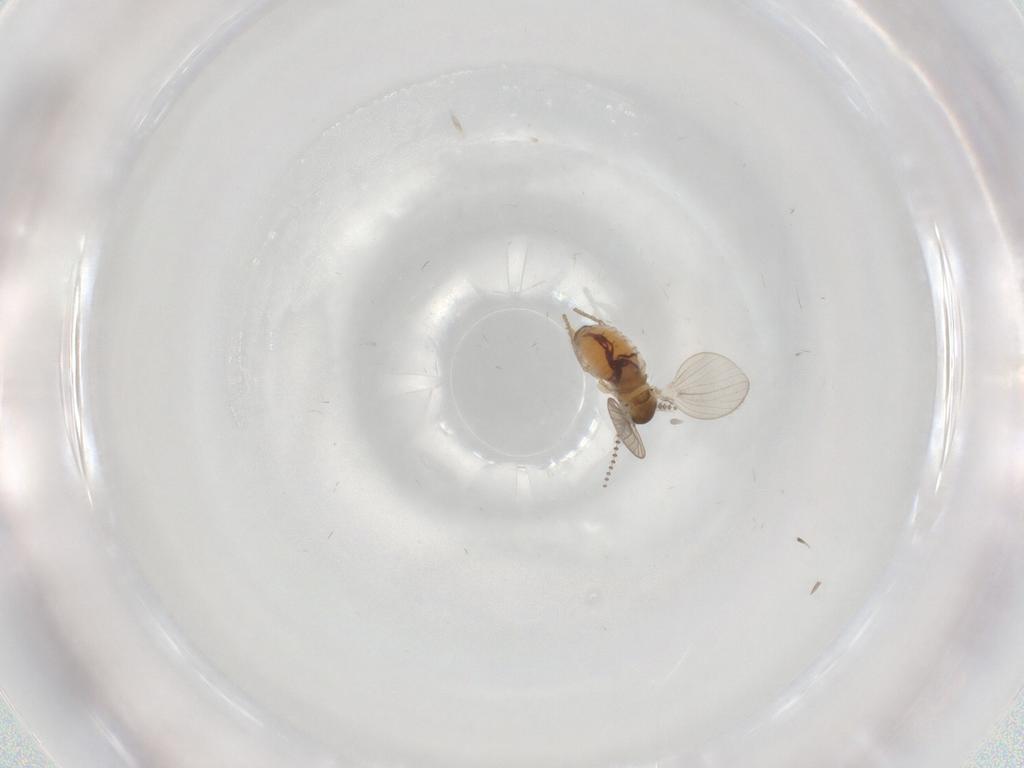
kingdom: Animalia
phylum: Arthropoda
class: Insecta
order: Diptera
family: Psychodidae
